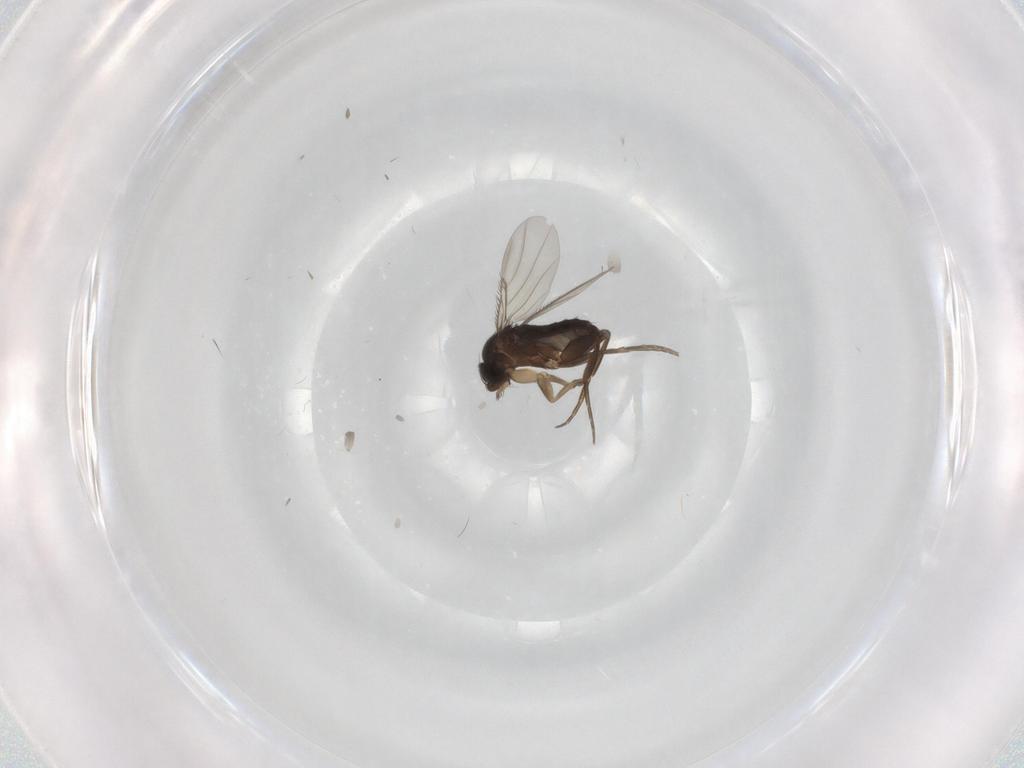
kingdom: Animalia
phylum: Arthropoda
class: Insecta
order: Diptera
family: Phoridae
